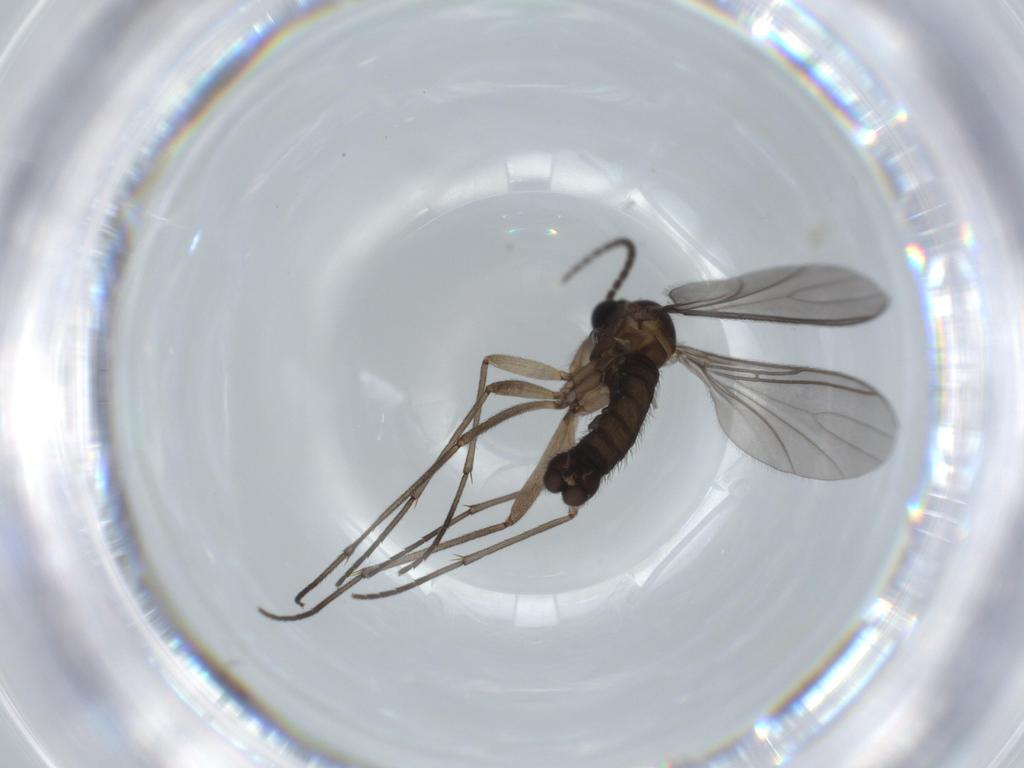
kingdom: Animalia
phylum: Arthropoda
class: Insecta
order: Diptera
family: Sciaridae
